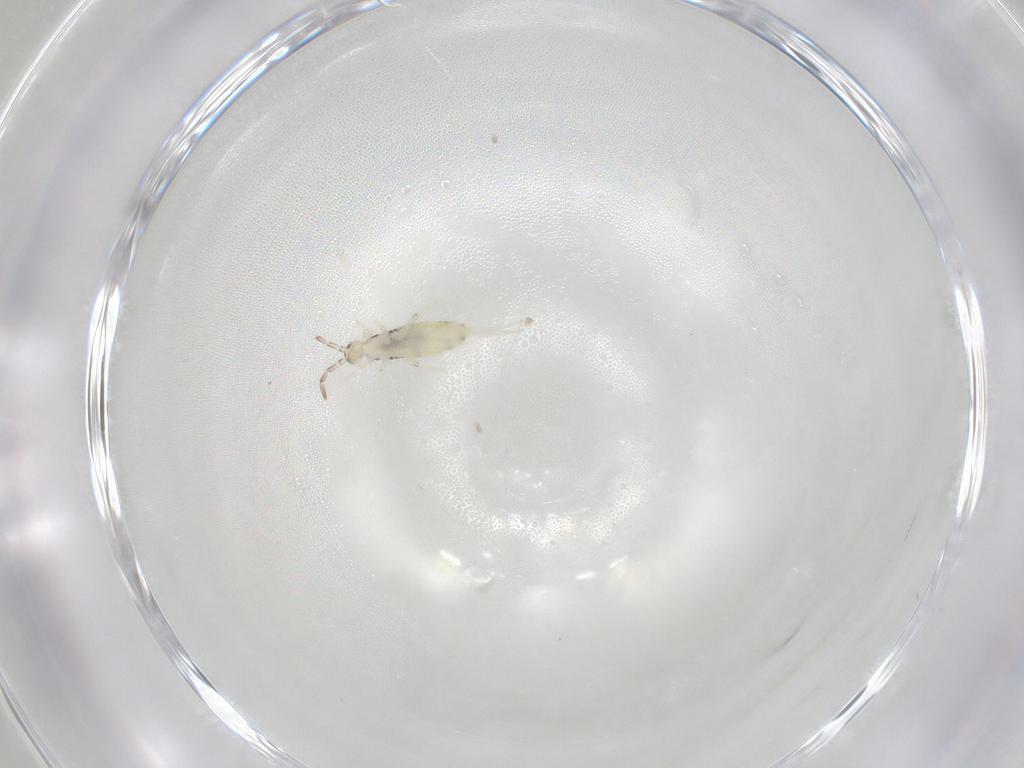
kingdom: Animalia
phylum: Arthropoda
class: Collembola
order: Entomobryomorpha
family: Entomobryidae
